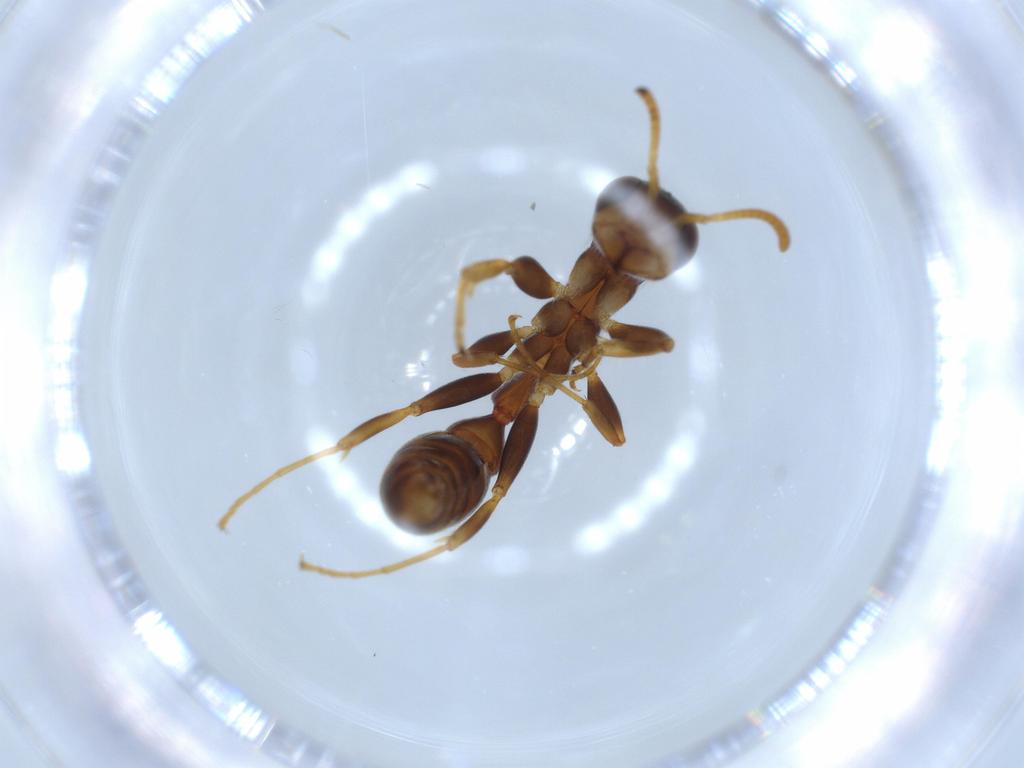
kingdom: Animalia
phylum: Arthropoda
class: Insecta
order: Hymenoptera
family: Formicidae
